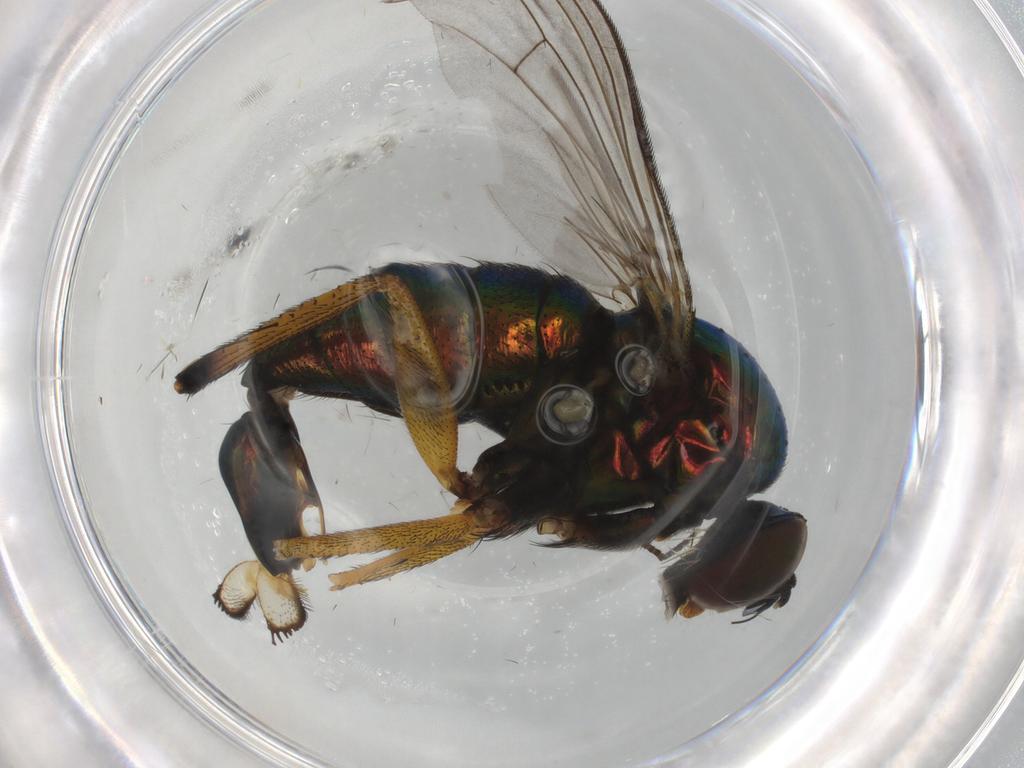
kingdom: Animalia
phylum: Arthropoda
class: Insecta
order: Diptera
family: Dolichopodidae
